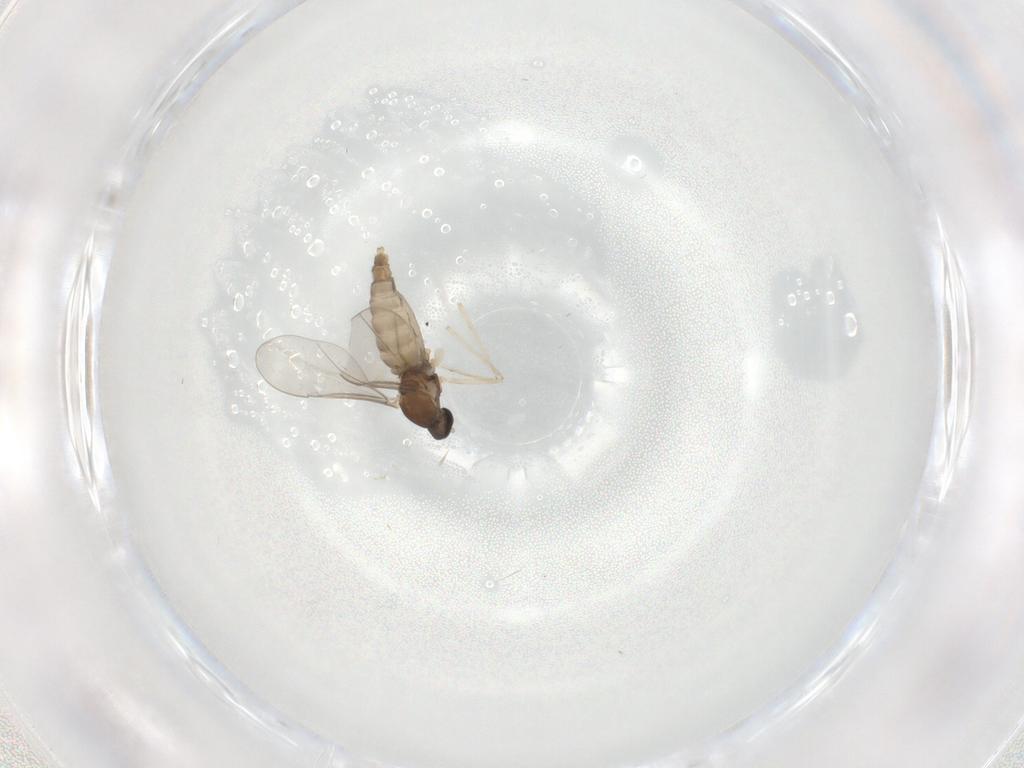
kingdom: Animalia
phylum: Arthropoda
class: Insecta
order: Diptera
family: Cecidomyiidae
